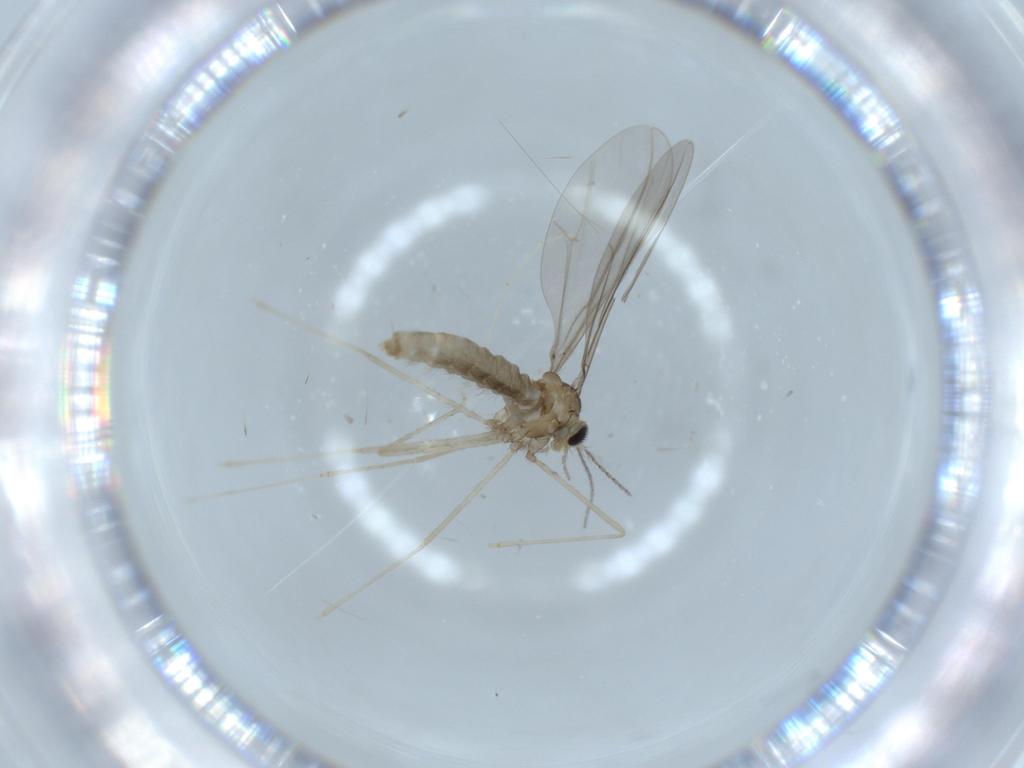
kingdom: Animalia
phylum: Arthropoda
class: Insecta
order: Diptera
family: Cecidomyiidae
